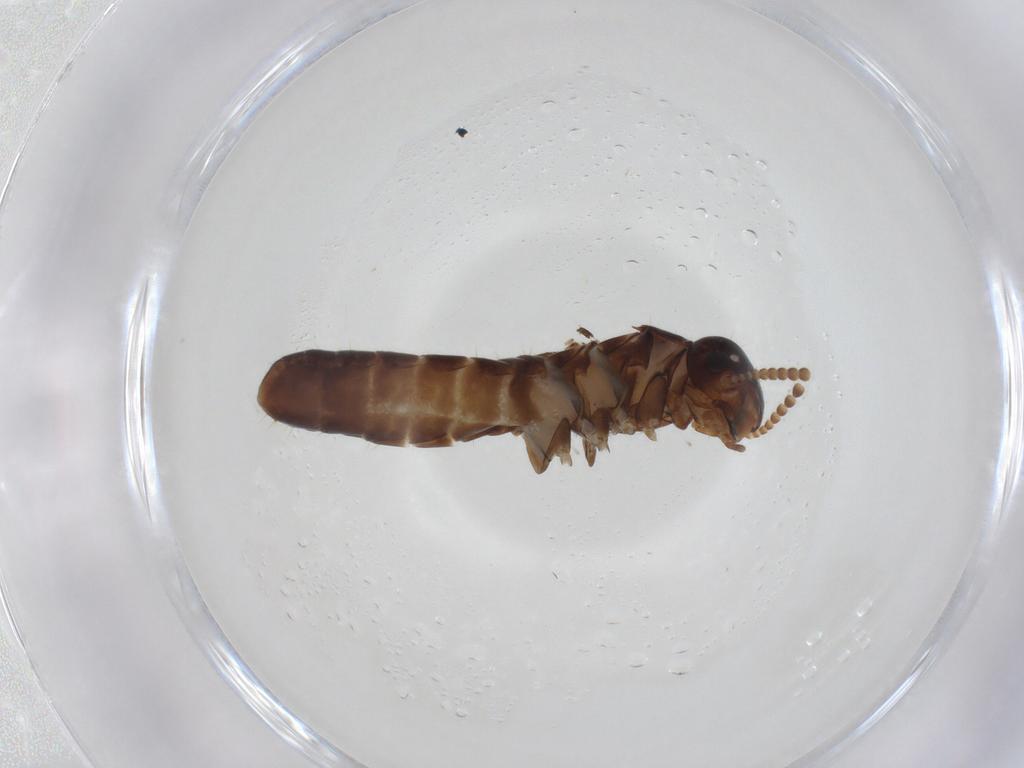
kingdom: Animalia
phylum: Arthropoda
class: Insecta
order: Blattodea
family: Kalotermitidae
